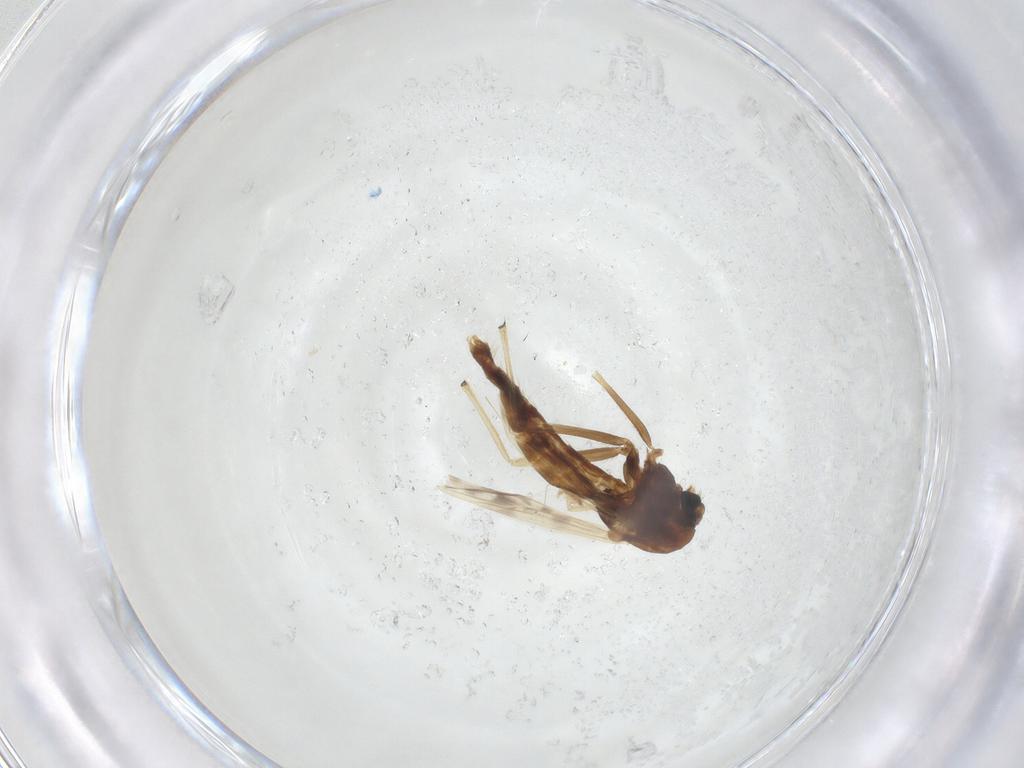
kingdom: Animalia
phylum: Arthropoda
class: Insecta
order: Diptera
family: Chironomidae
